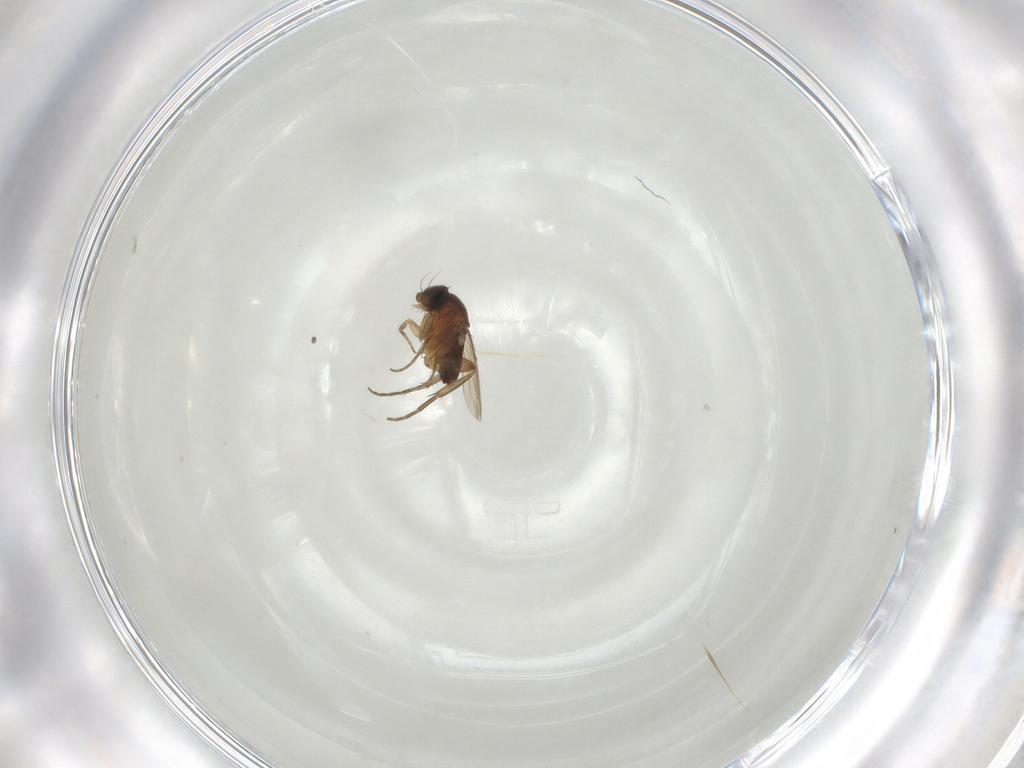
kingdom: Animalia
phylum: Arthropoda
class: Insecta
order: Diptera
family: Phoridae
